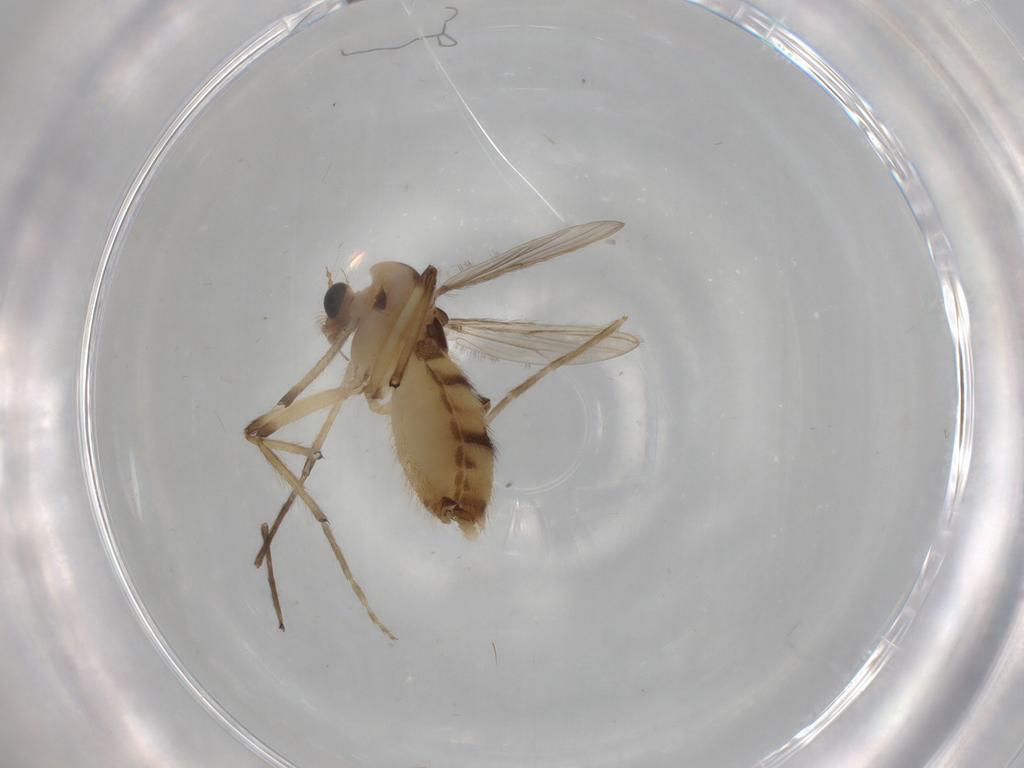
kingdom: Animalia
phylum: Arthropoda
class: Insecta
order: Diptera
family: Chironomidae
